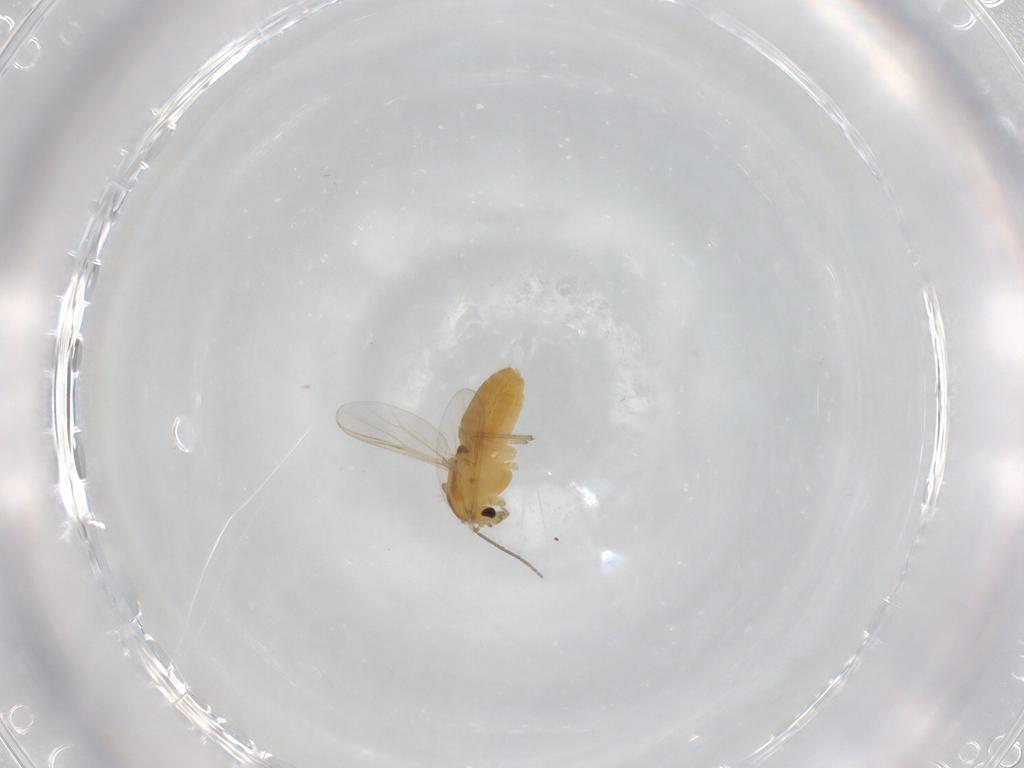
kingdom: Animalia
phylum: Arthropoda
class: Insecta
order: Diptera
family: Chironomidae
